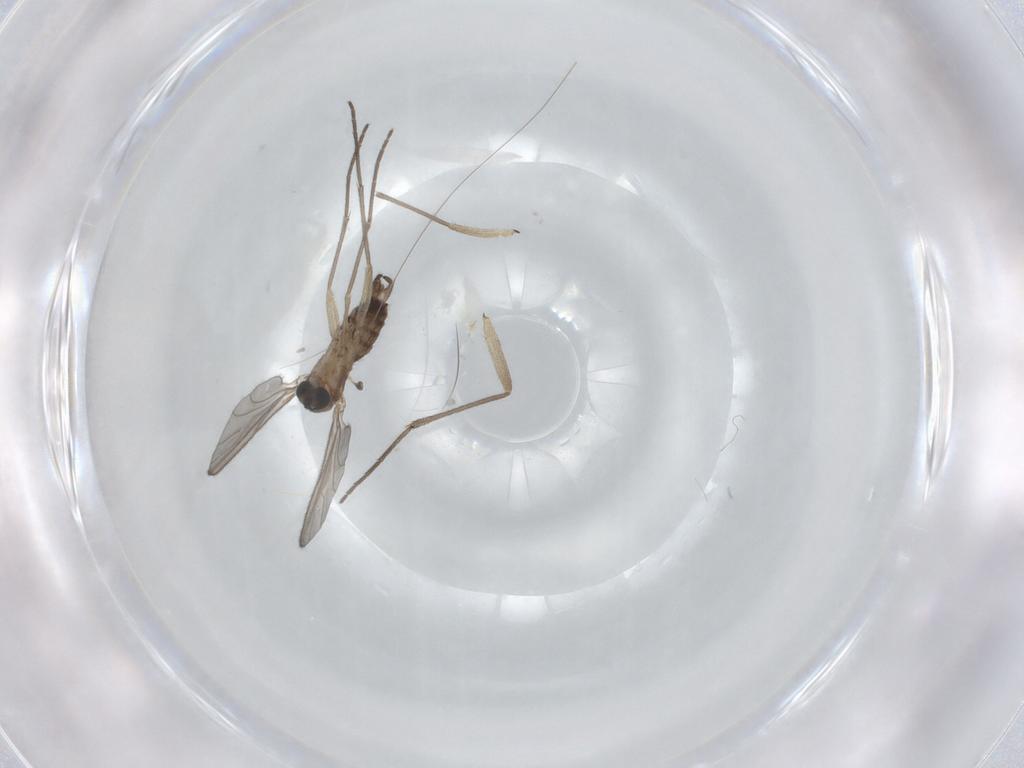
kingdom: Animalia
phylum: Arthropoda
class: Insecta
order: Diptera
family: Sciaridae
